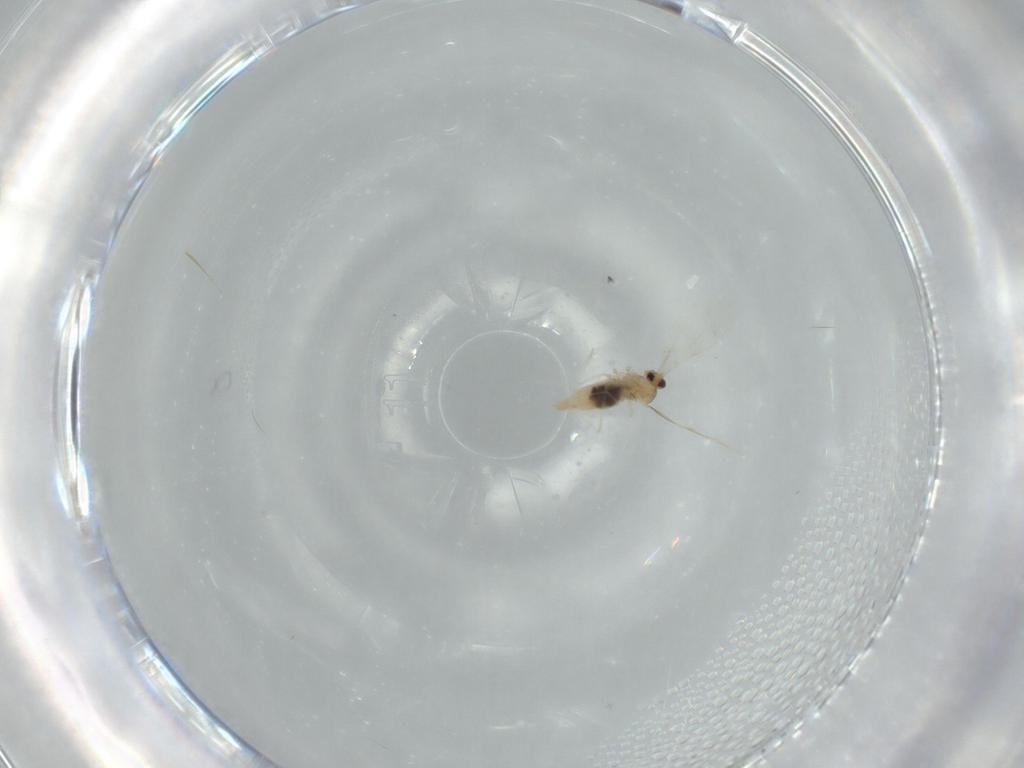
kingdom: Animalia
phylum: Arthropoda
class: Insecta
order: Diptera
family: Cecidomyiidae
